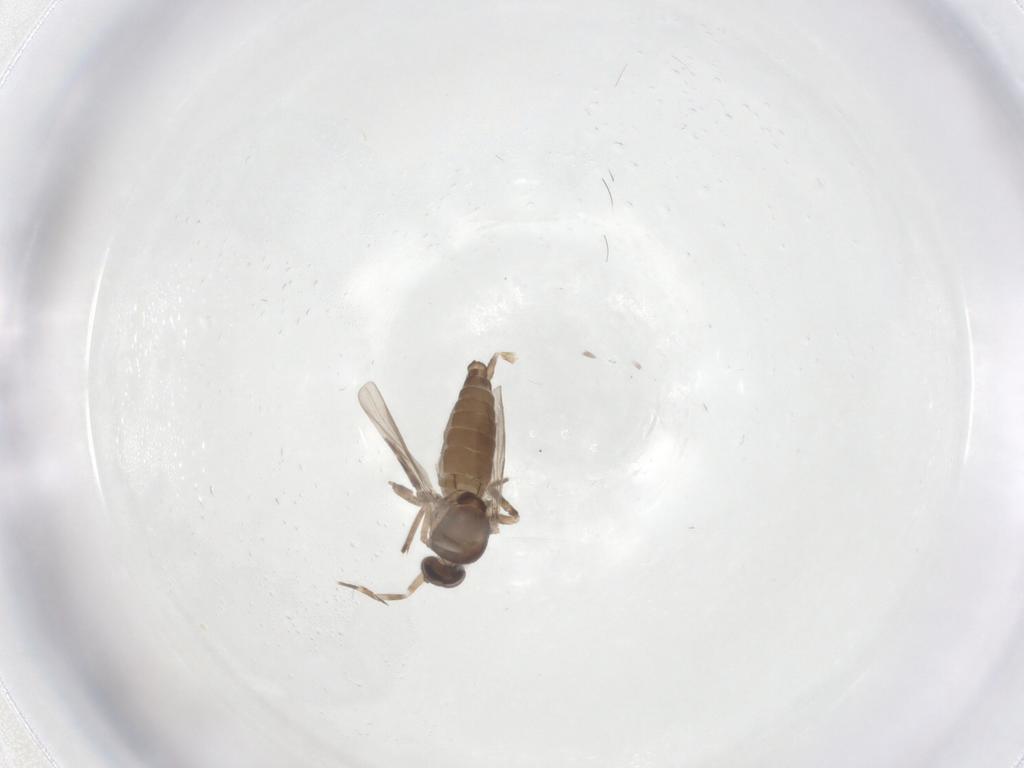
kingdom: Animalia
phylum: Arthropoda
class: Insecta
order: Diptera
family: Ceratopogonidae
